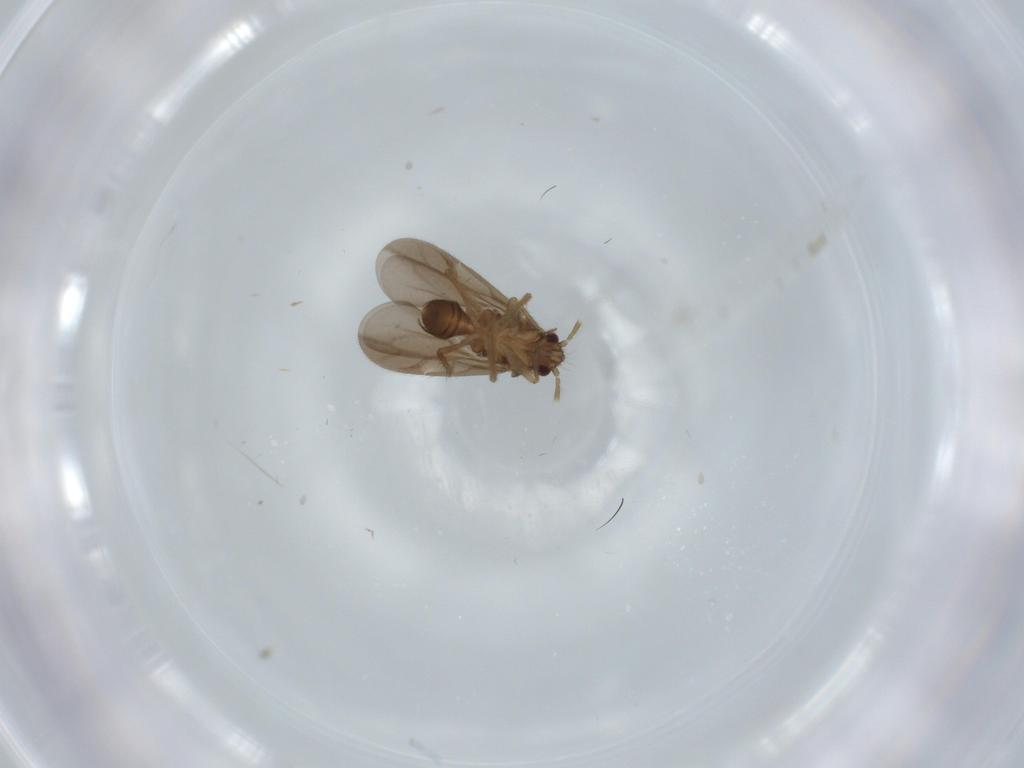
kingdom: Animalia
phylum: Arthropoda
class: Insecta
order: Hemiptera
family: Ceratocombidae
